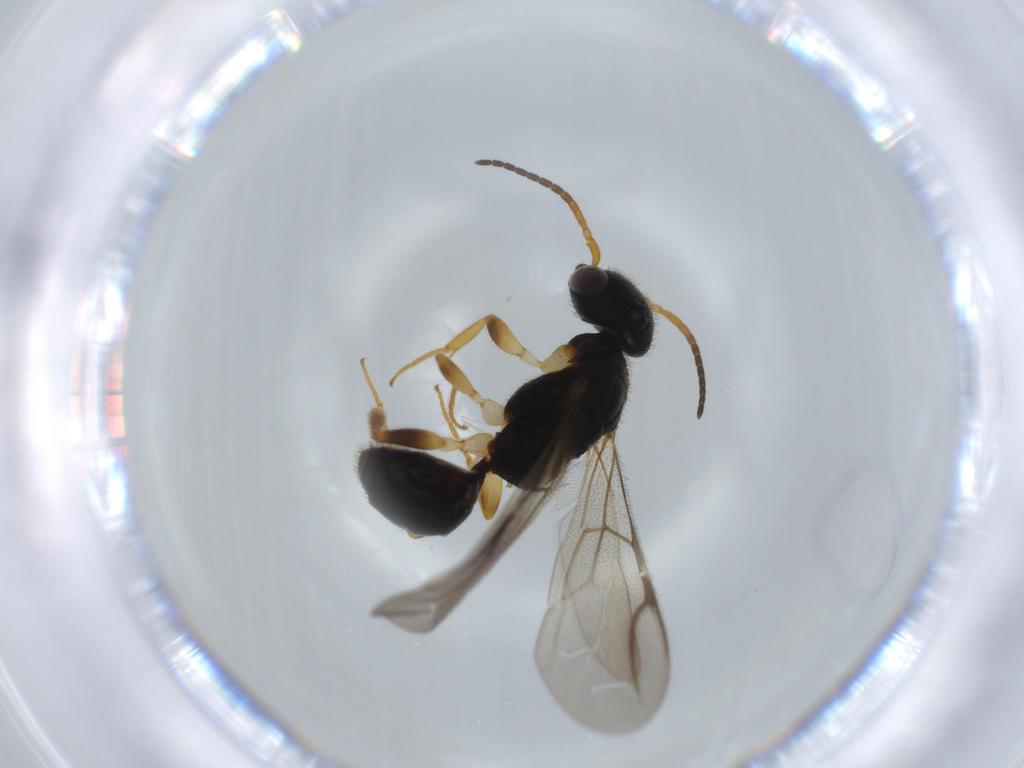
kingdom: Animalia
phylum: Arthropoda
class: Insecta
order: Hymenoptera
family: Bethylidae
